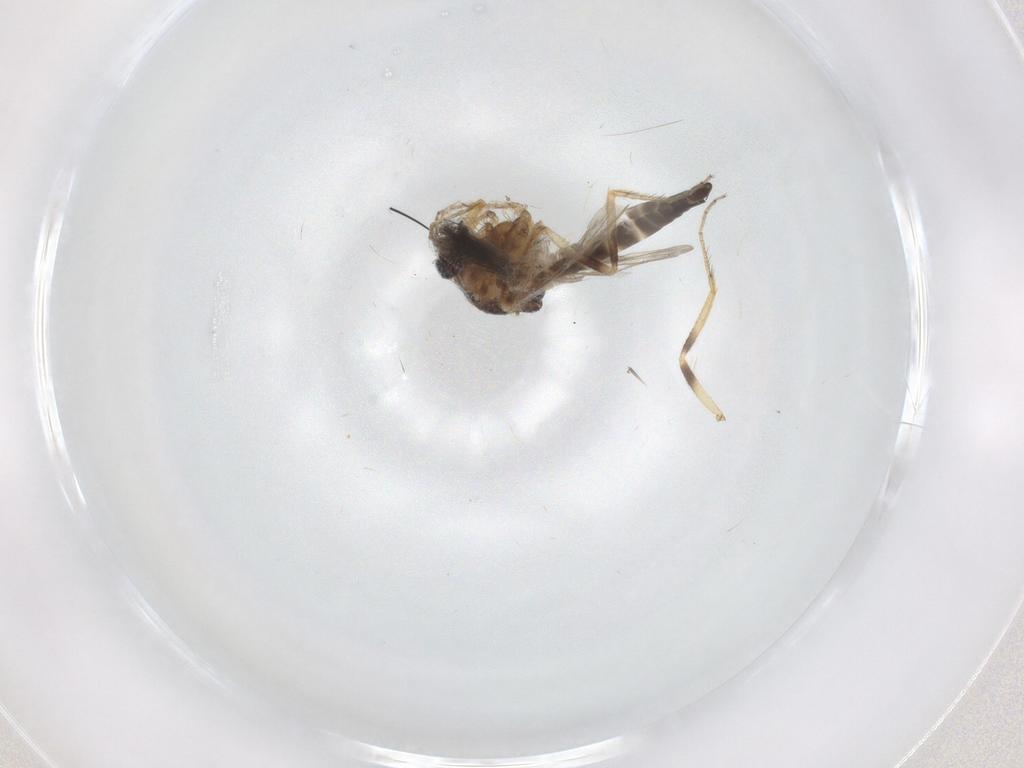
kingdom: Animalia
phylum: Arthropoda
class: Insecta
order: Diptera
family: Ceratopogonidae
